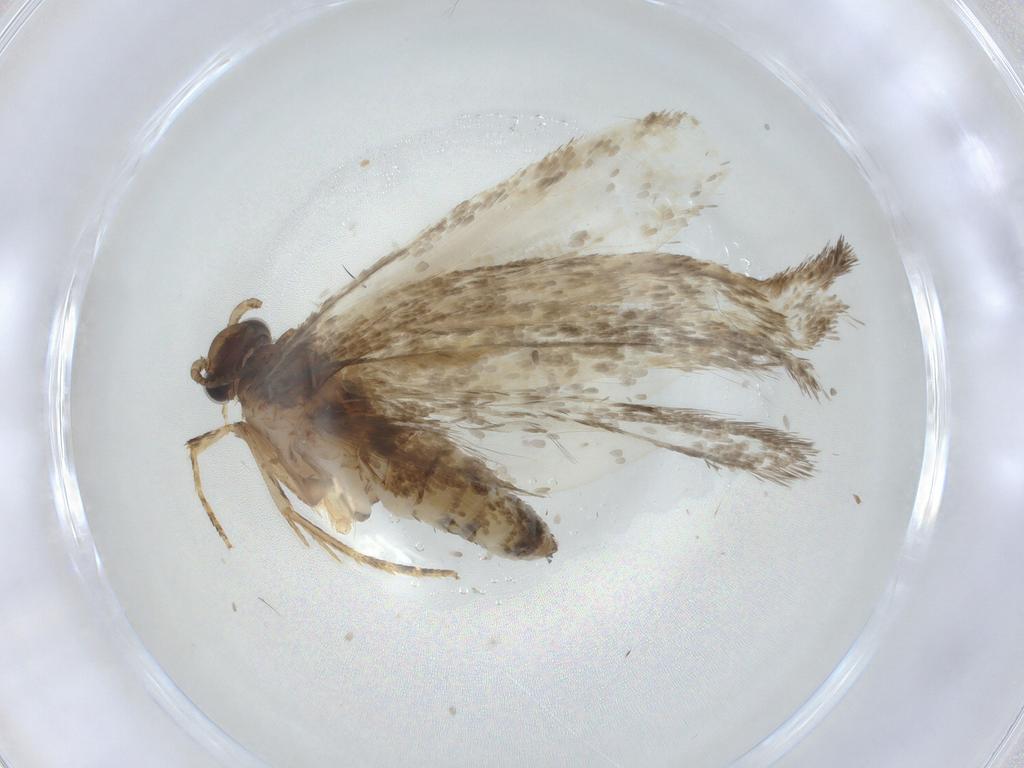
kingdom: Animalia
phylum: Arthropoda
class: Insecta
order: Lepidoptera
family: Crambidae
